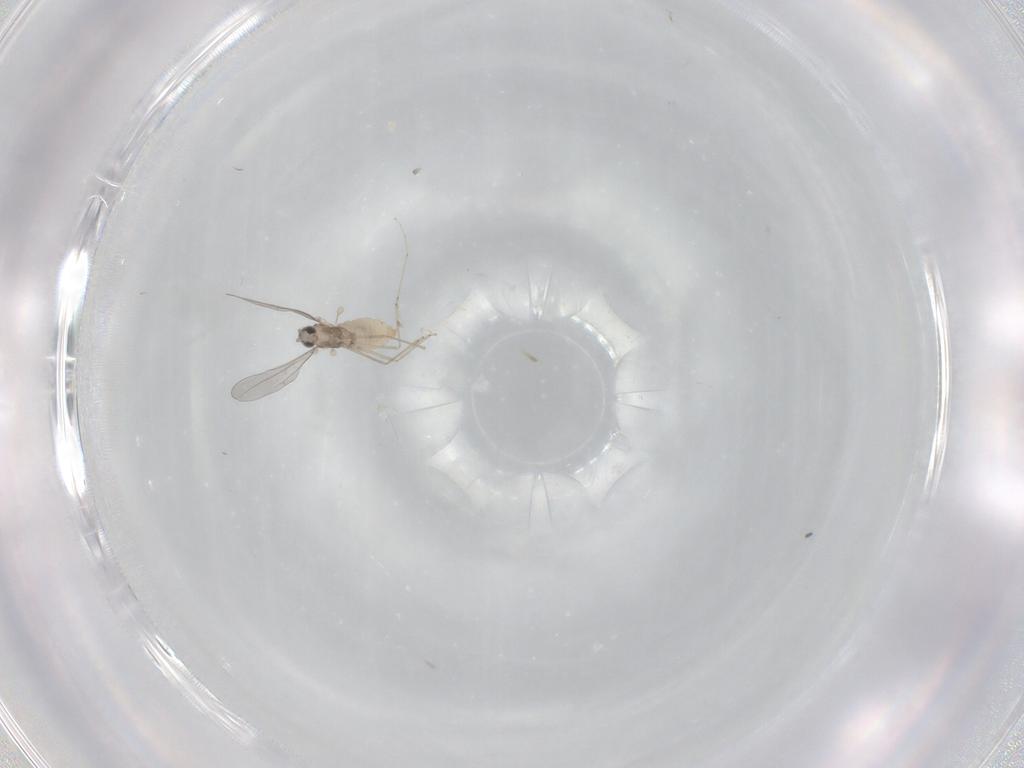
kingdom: Animalia
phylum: Arthropoda
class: Insecta
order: Diptera
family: Cecidomyiidae
